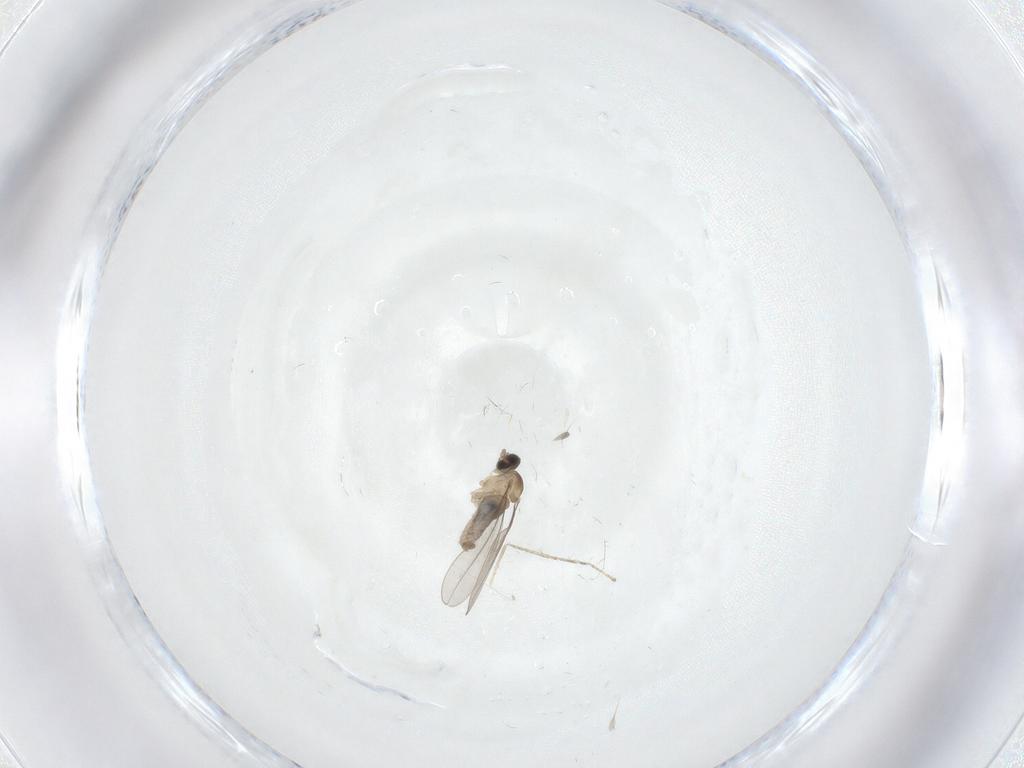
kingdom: Animalia
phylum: Arthropoda
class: Insecta
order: Diptera
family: Cecidomyiidae
